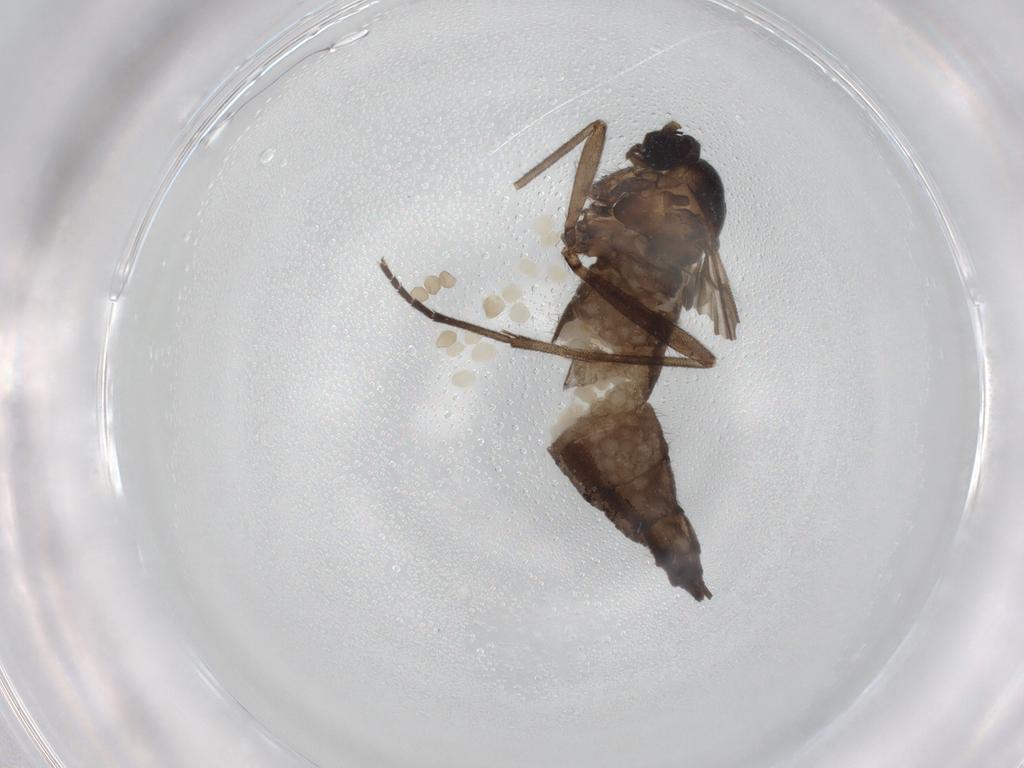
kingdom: Animalia
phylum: Arthropoda
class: Insecta
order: Diptera
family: Sciaridae
